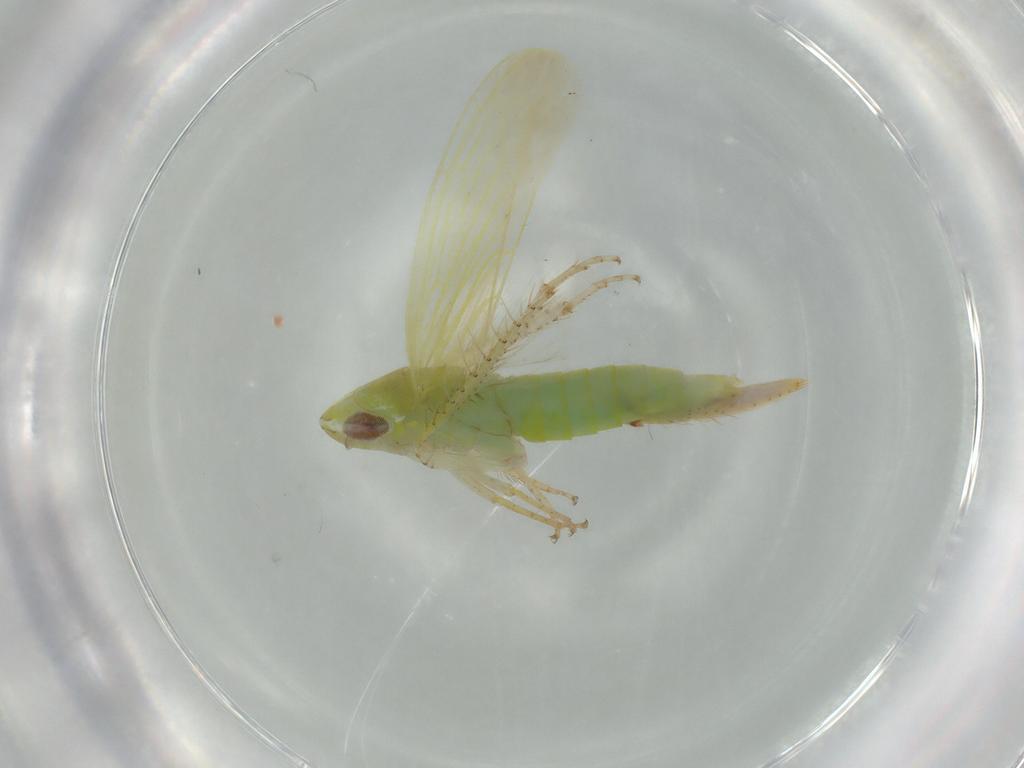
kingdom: Animalia
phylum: Arthropoda
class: Insecta
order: Hemiptera
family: Cicadellidae
